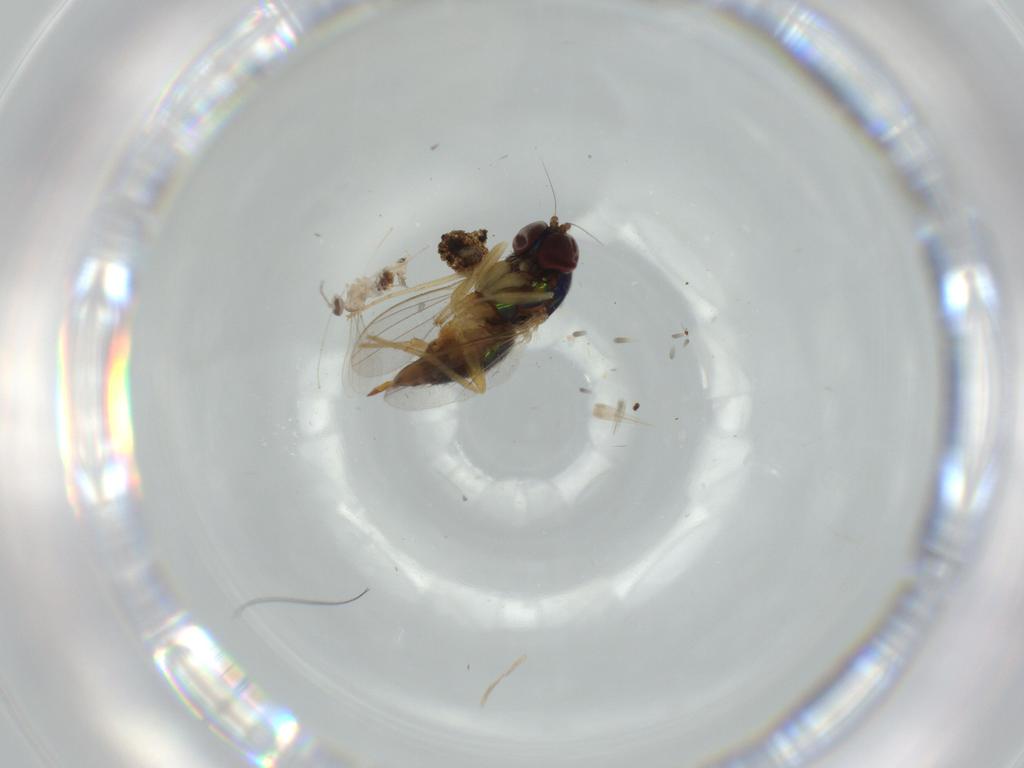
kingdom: Animalia
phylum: Arthropoda
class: Insecta
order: Diptera
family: Dolichopodidae
